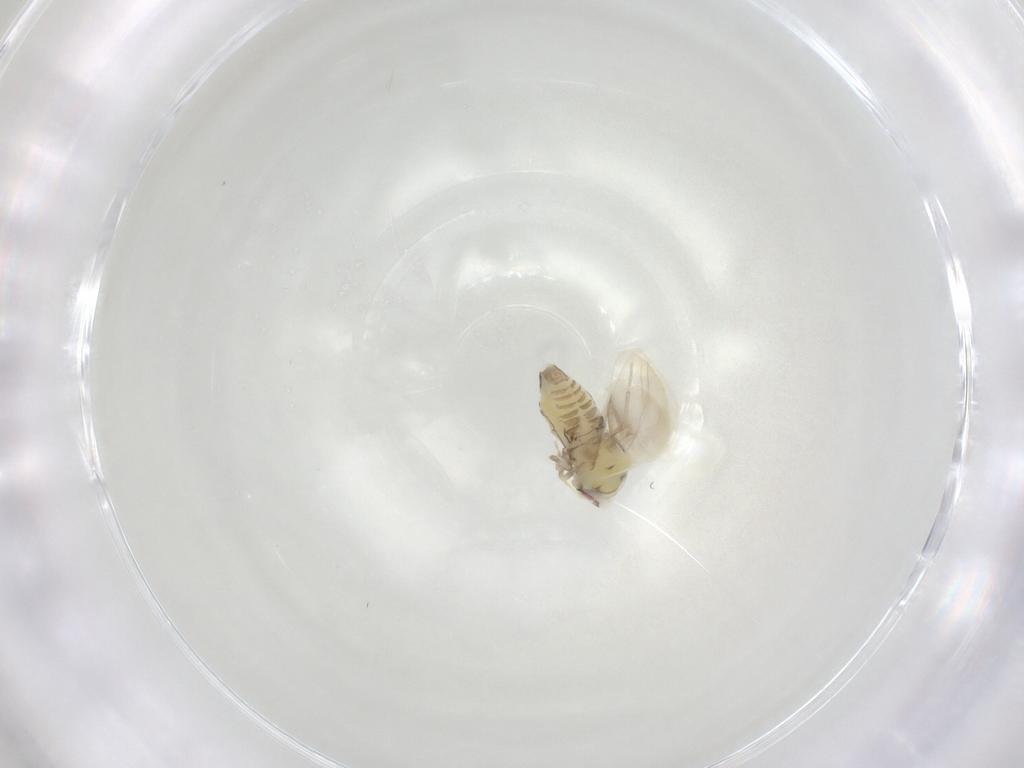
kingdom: Animalia
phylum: Arthropoda
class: Insecta
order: Hemiptera
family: Aleyrodidae
